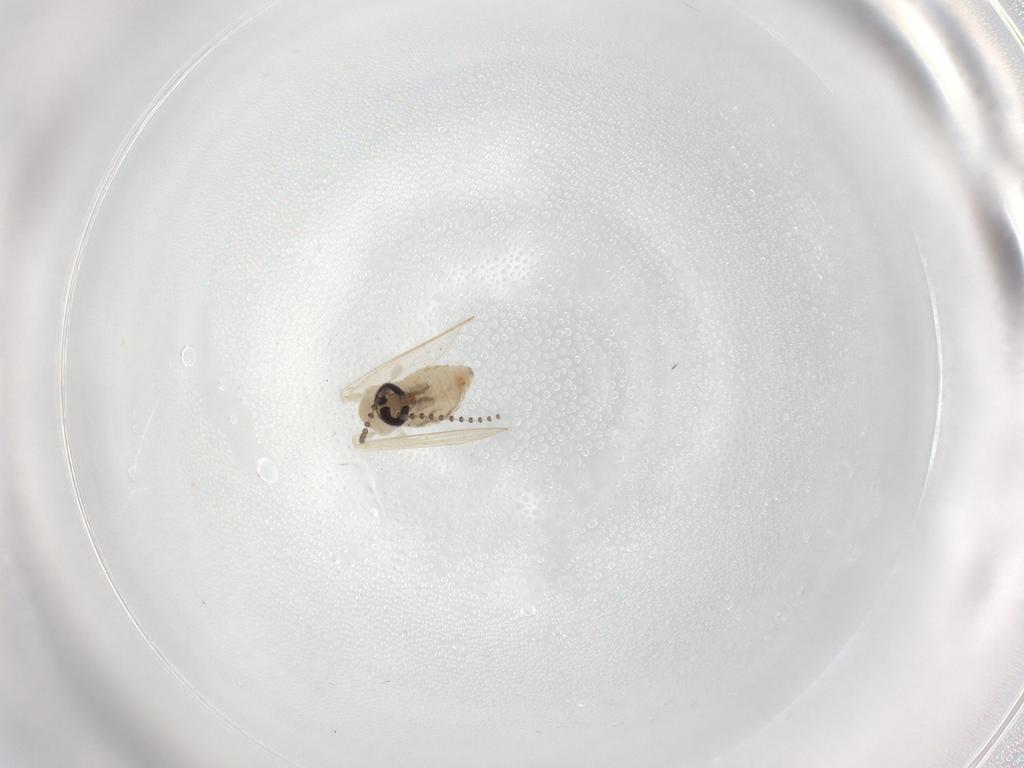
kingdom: Animalia
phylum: Arthropoda
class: Insecta
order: Diptera
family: Psychodidae
